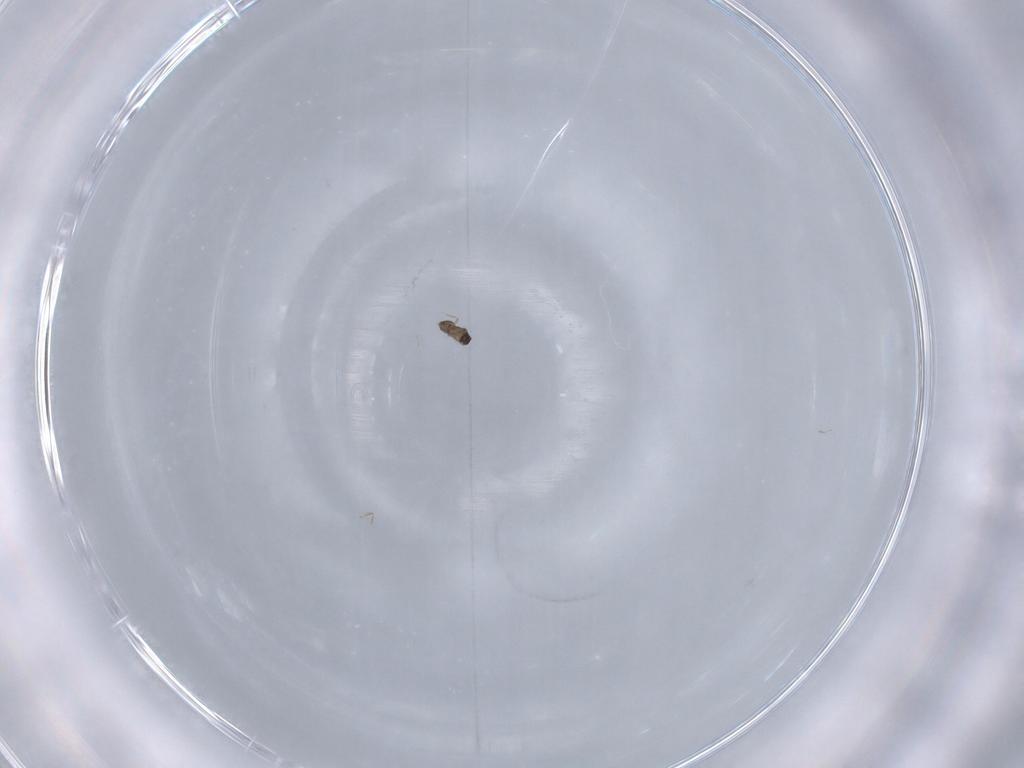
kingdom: Animalia
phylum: Arthropoda
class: Insecta
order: Hymenoptera
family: Mymaridae
